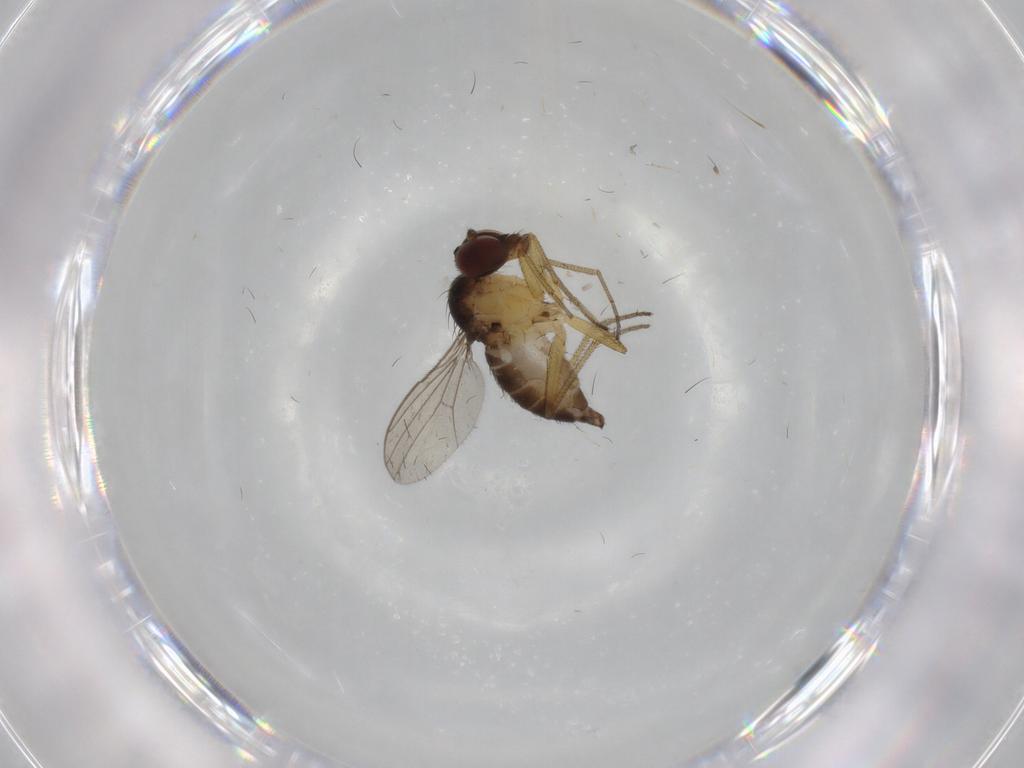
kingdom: Animalia
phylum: Arthropoda
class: Insecta
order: Diptera
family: Dolichopodidae
